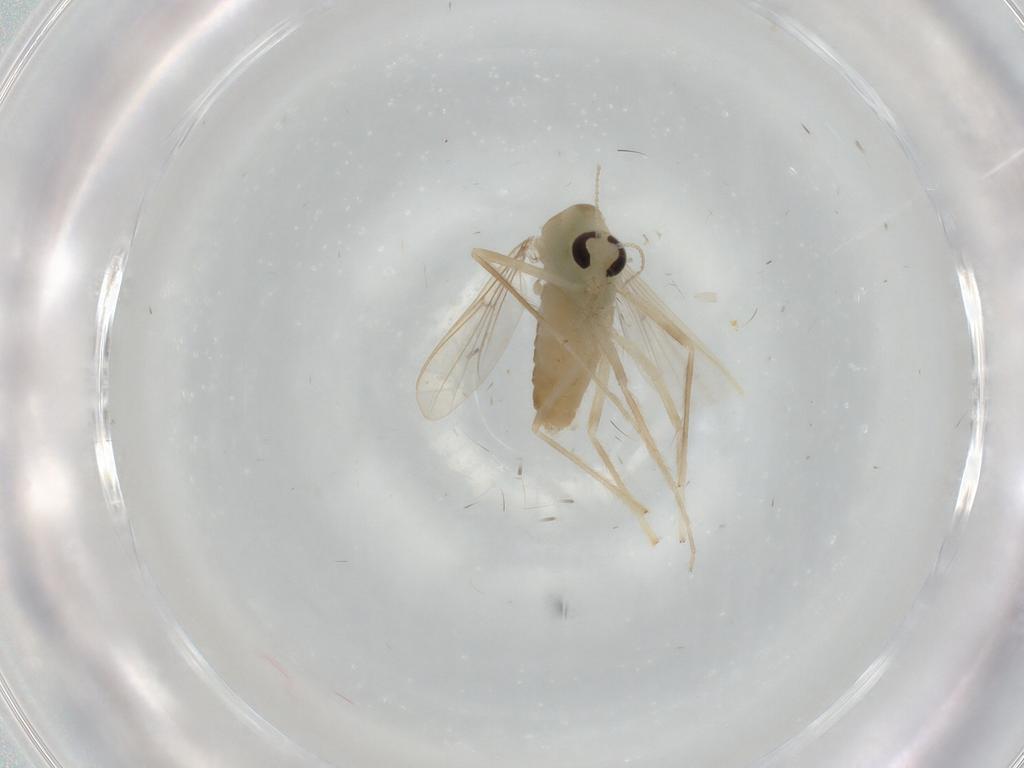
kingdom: Animalia
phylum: Arthropoda
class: Insecta
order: Diptera
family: Chironomidae
